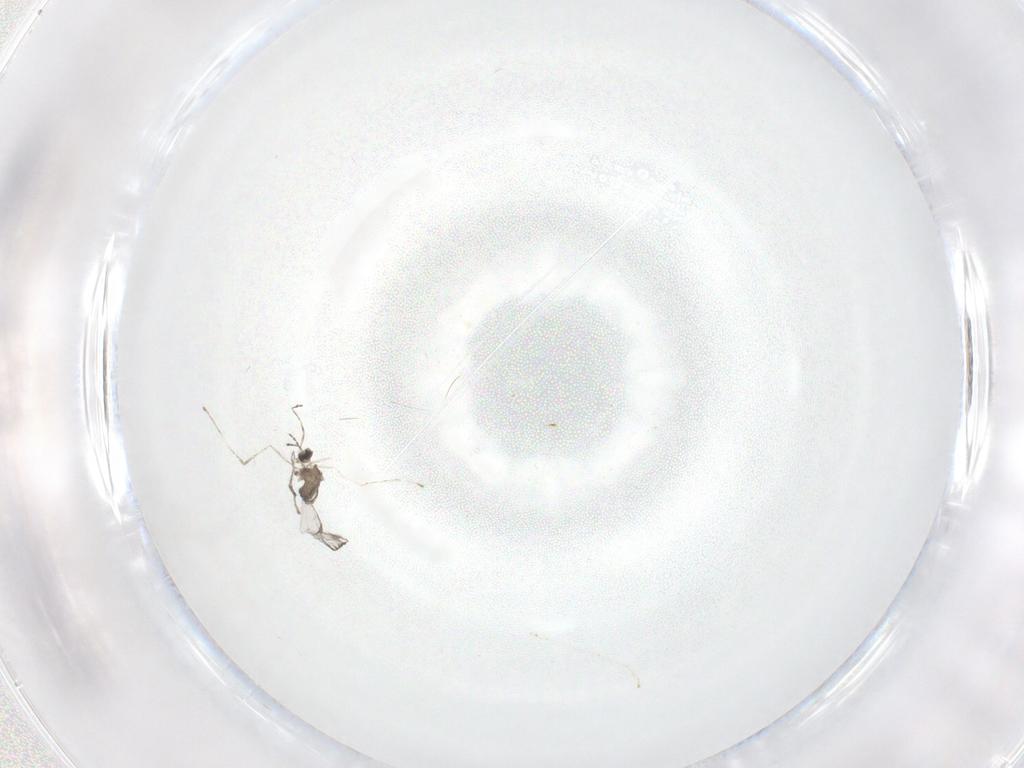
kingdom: Animalia
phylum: Arthropoda
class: Insecta
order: Diptera
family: Cecidomyiidae
